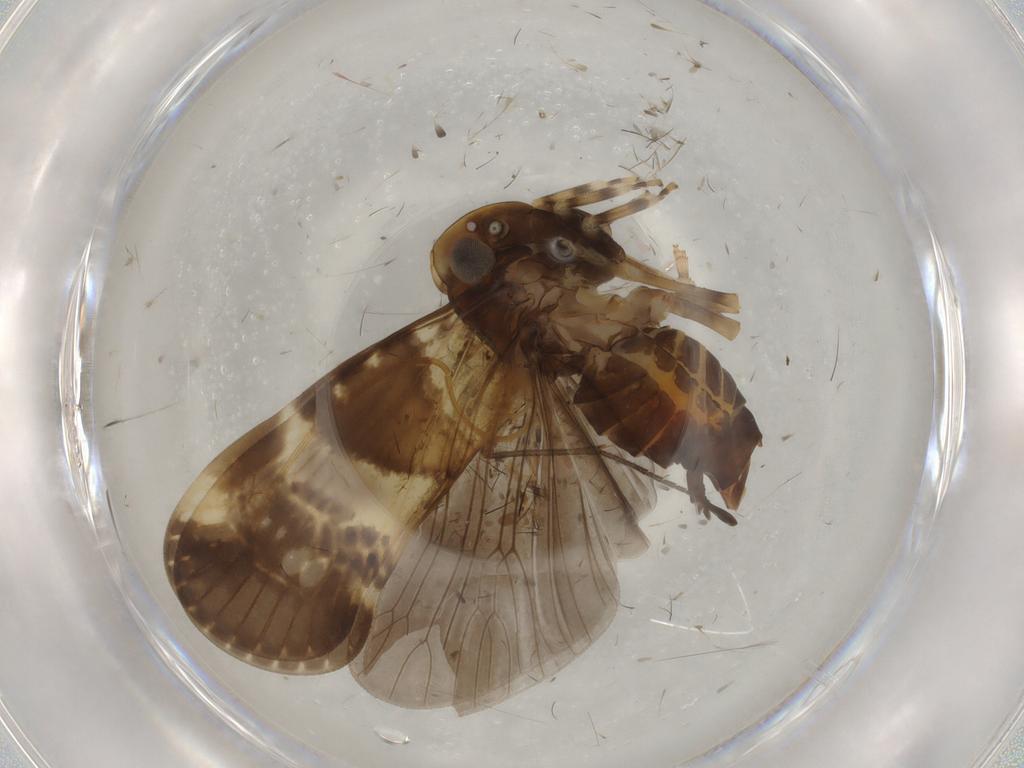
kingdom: Animalia
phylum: Arthropoda
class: Insecta
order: Hemiptera
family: Cixiidae
